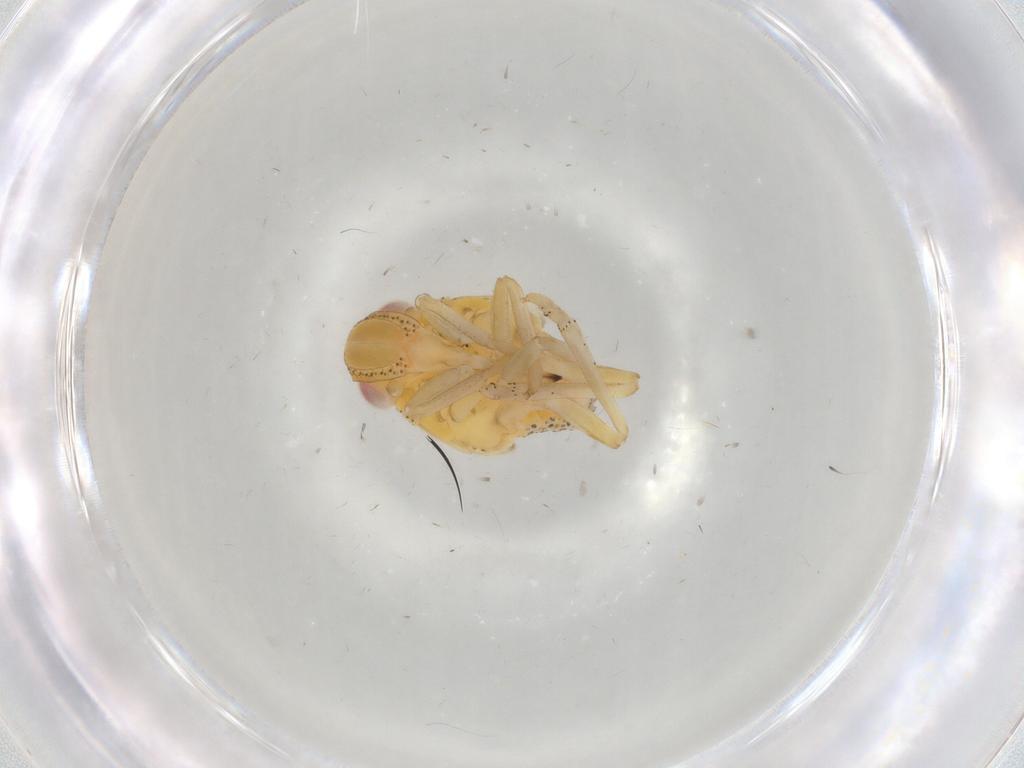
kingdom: Animalia
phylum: Arthropoda
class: Insecta
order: Hemiptera
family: Tropiduchidae
